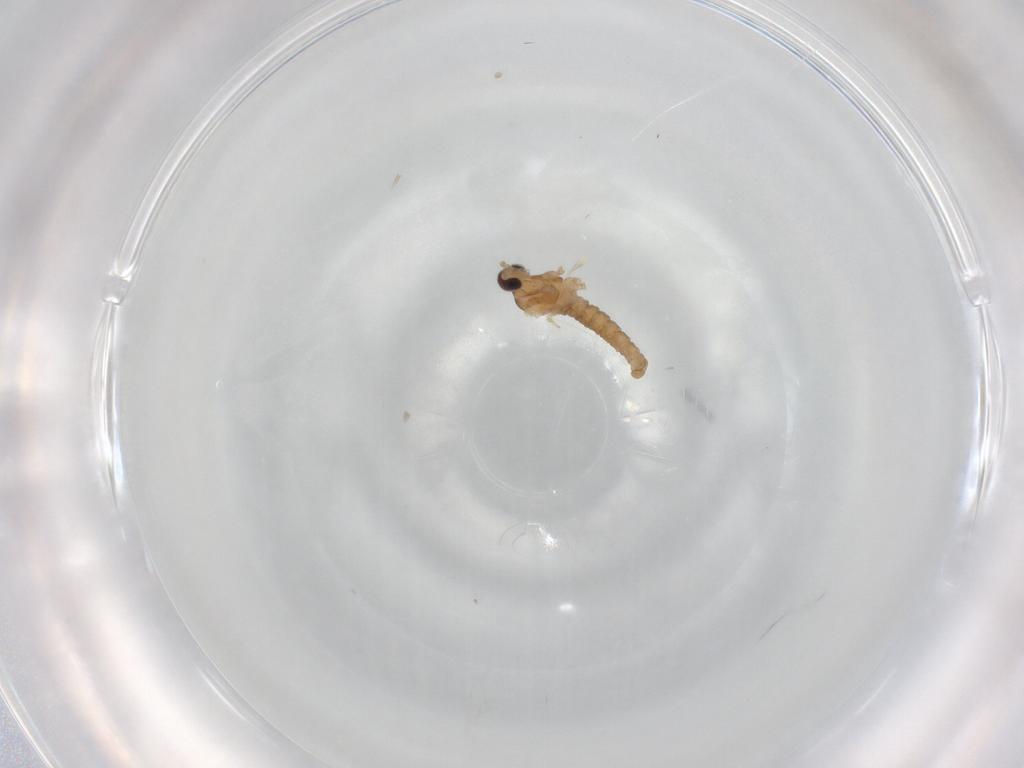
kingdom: Animalia
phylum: Arthropoda
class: Insecta
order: Diptera
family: Cecidomyiidae
